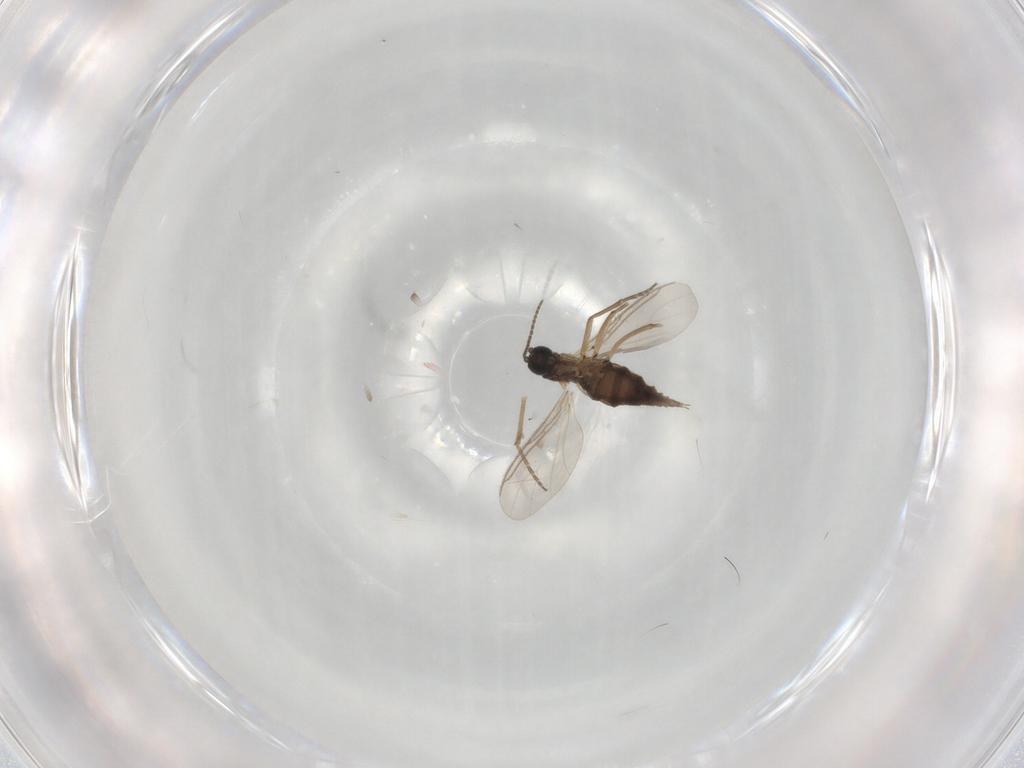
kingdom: Animalia
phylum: Arthropoda
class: Insecta
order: Diptera
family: Sciaridae
